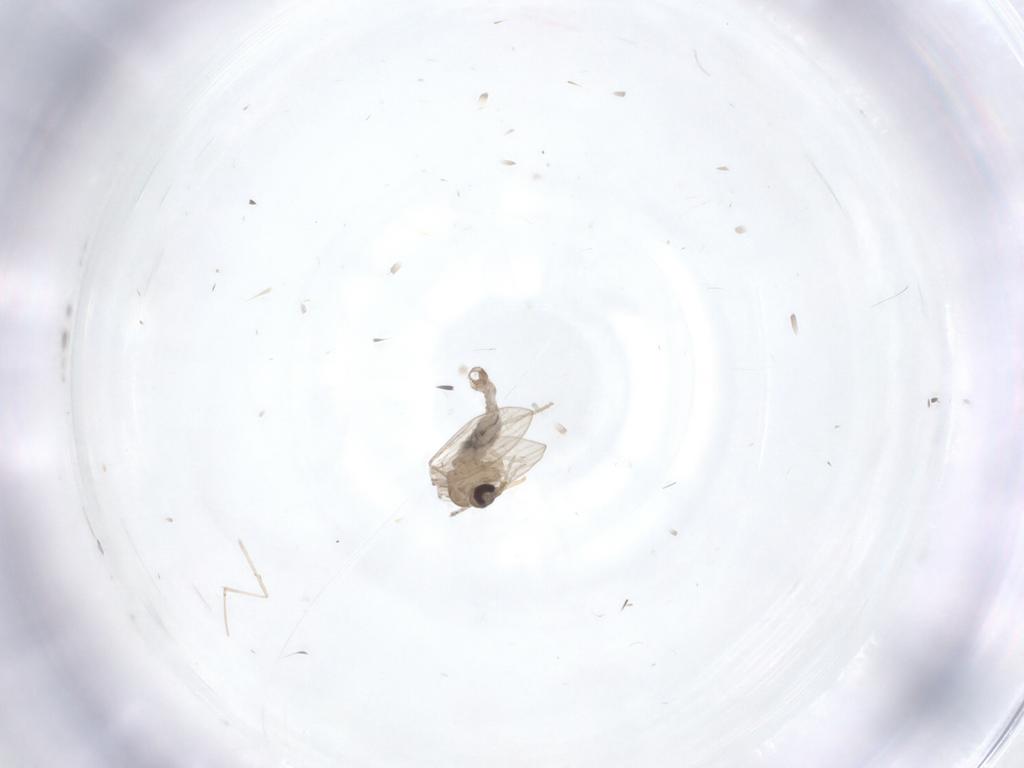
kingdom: Animalia
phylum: Arthropoda
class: Insecta
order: Diptera
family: Psychodidae
